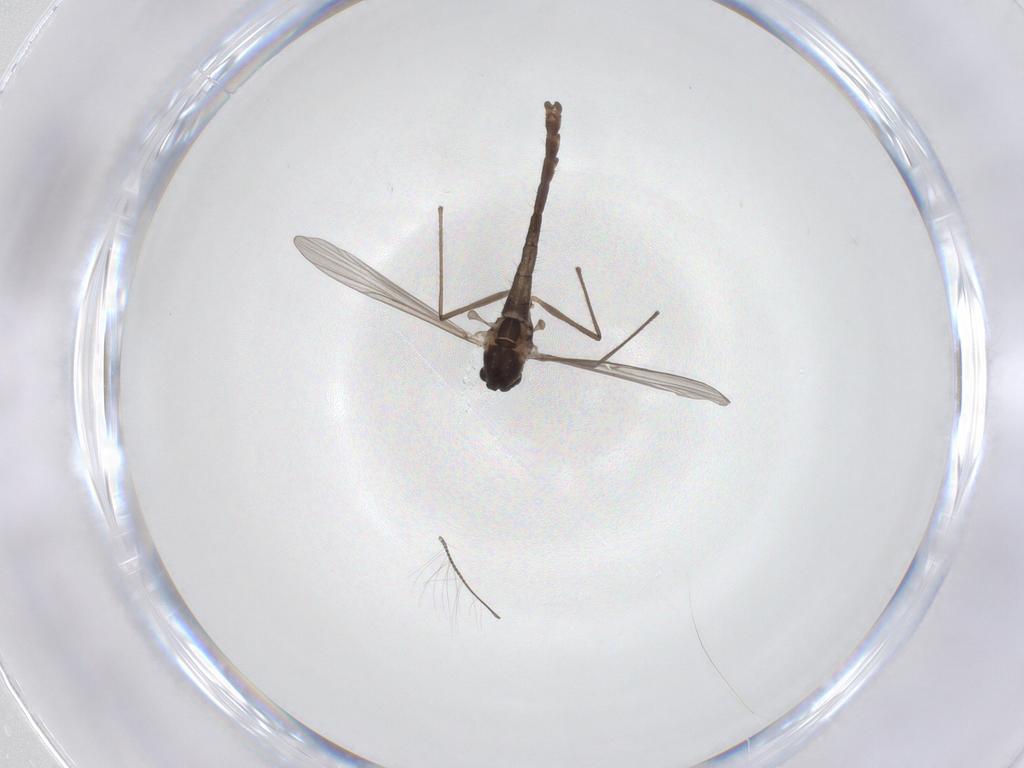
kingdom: Animalia
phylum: Arthropoda
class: Insecta
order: Diptera
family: Chironomidae
